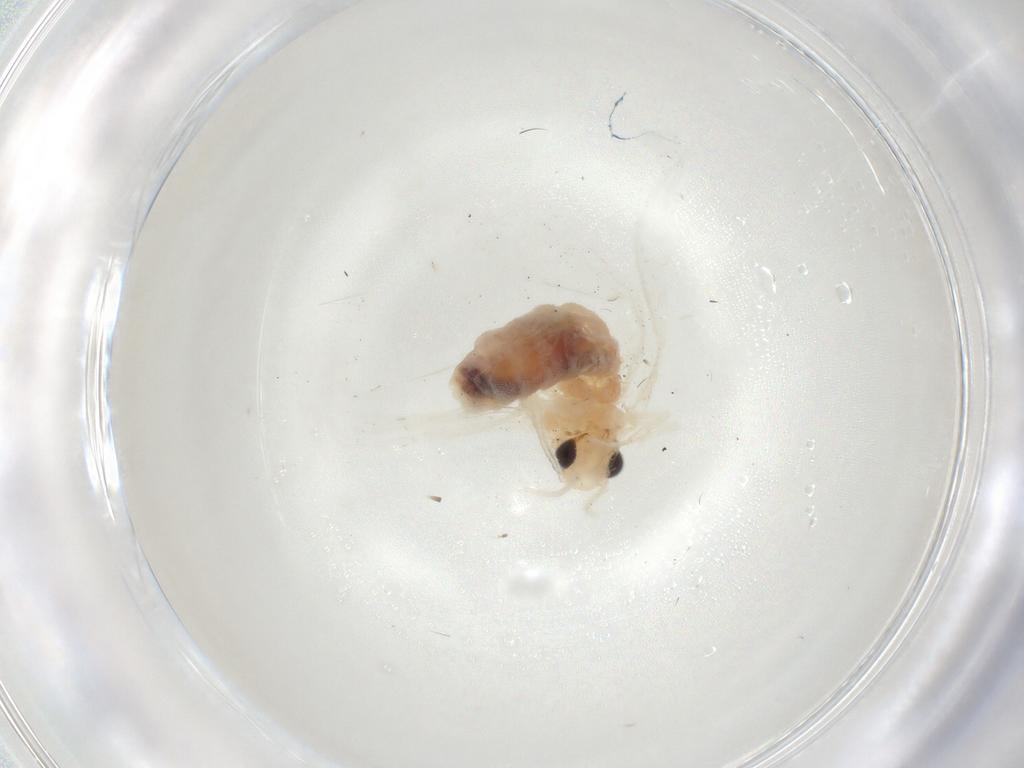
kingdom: Animalia
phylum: Arthropoda
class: Insecta
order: Neuroptera
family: Hemerobiidae
